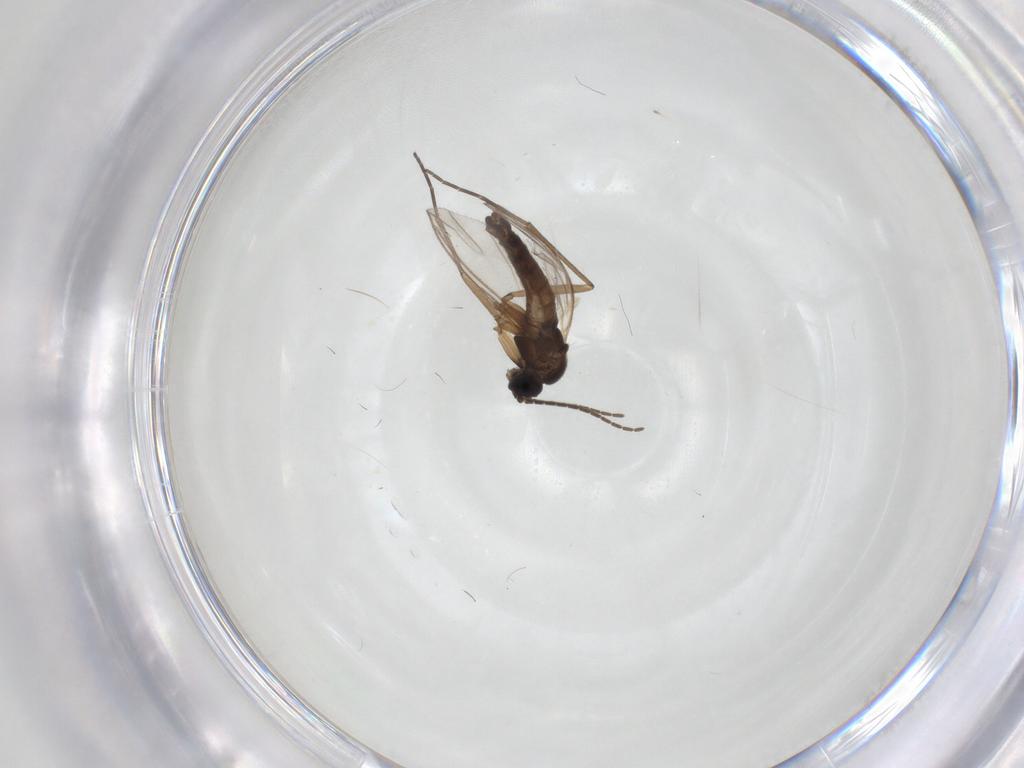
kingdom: Animalia
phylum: Arthropoda
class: Insecta
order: Diptera
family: Sciaridae
